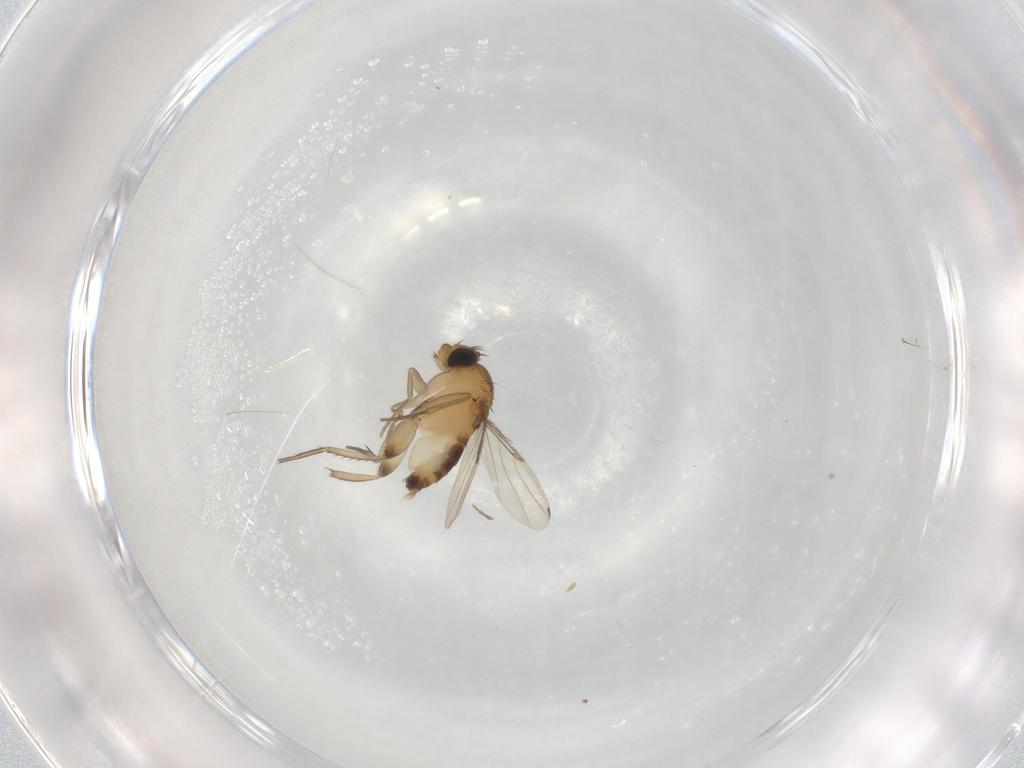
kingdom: Animalia
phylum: Arthropoda
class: Insecta
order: Diptera
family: Phoridae
